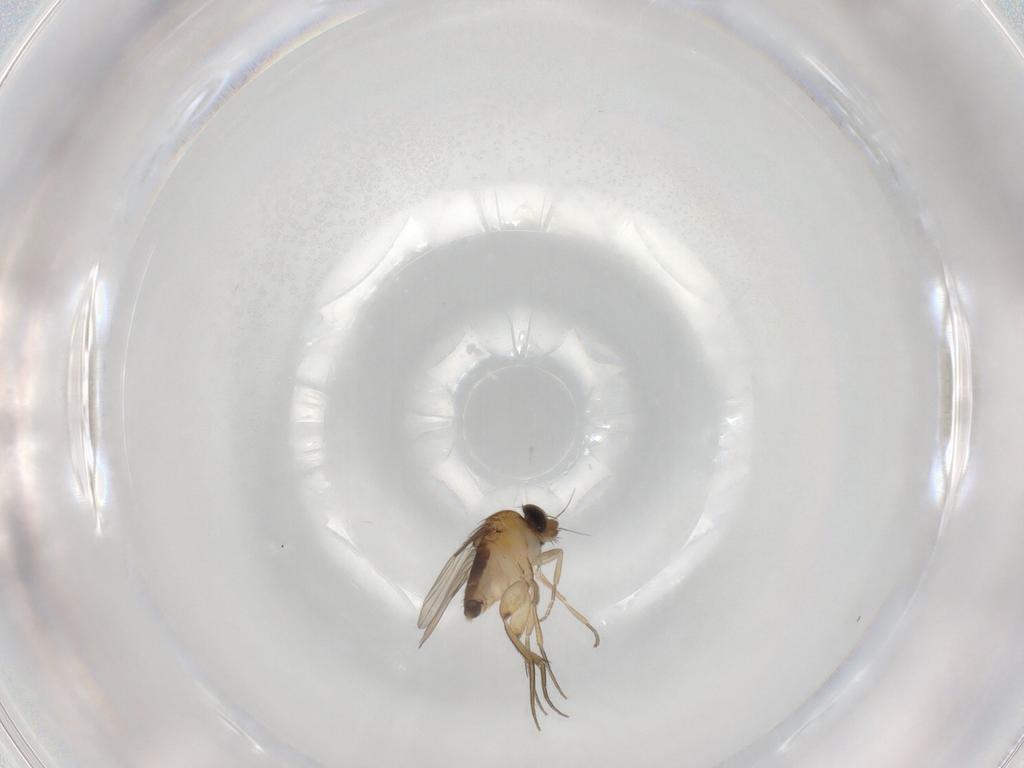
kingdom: Animalia
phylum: Arthropoda
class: Insecta
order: Diptera
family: Phoridae
